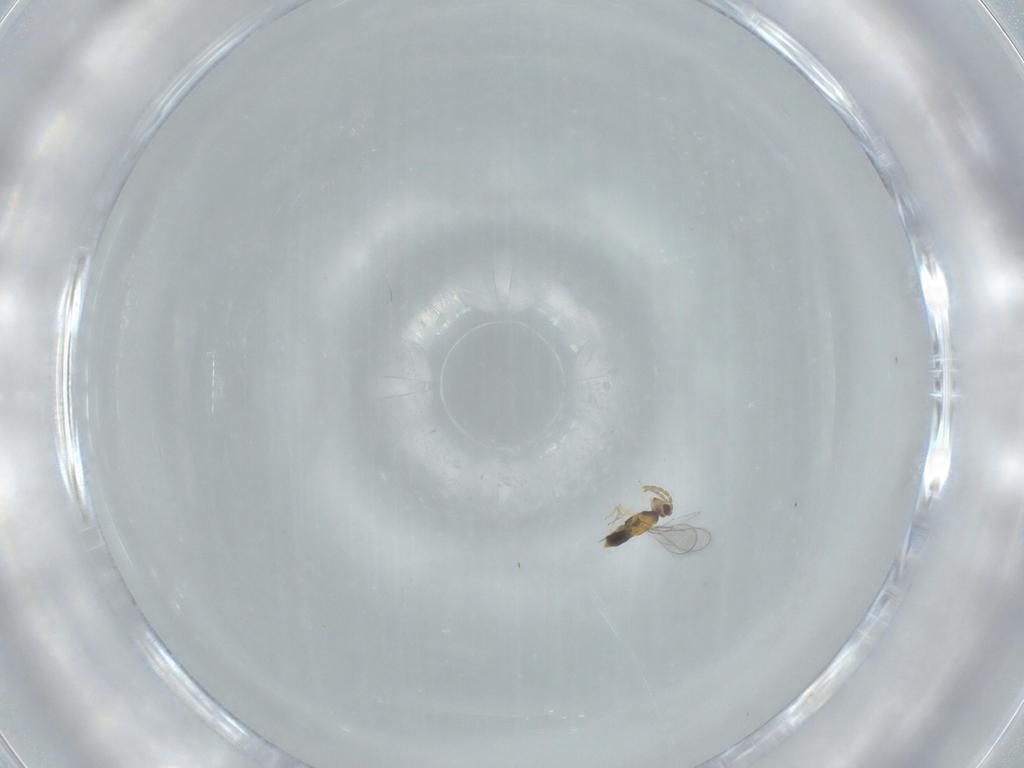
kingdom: Animalia
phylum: Arthropoda
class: Insecta
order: Hymenoptera
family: Aphelinidae
